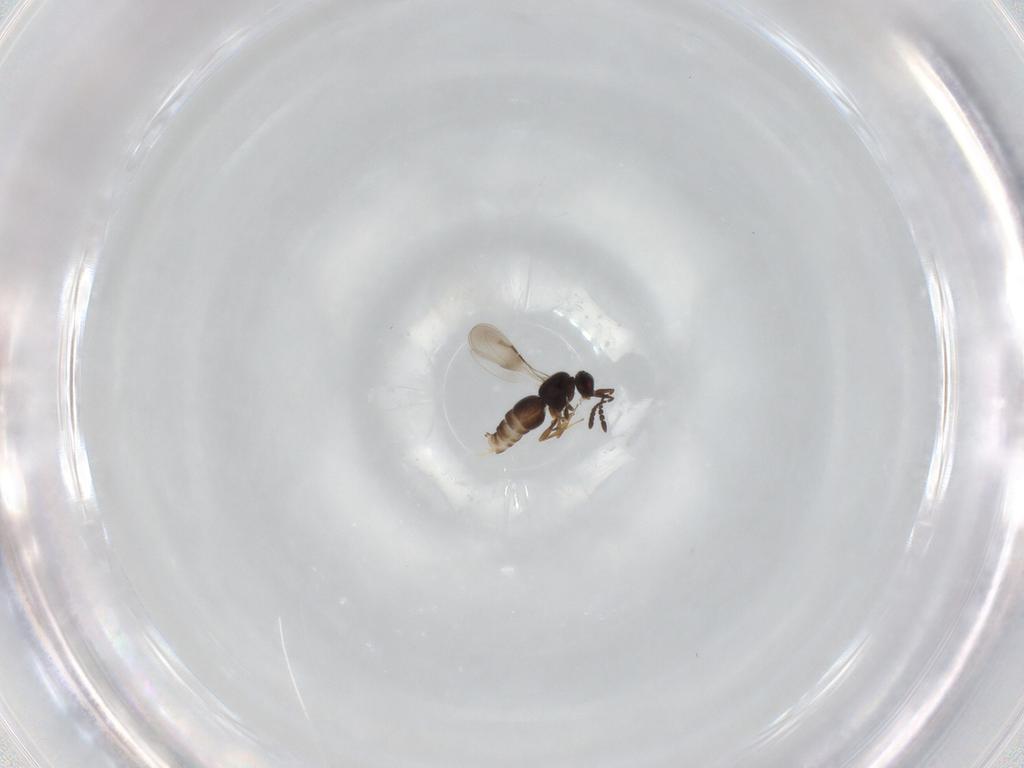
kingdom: Animalia
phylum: Arthropoda
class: Insecta
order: Hymenoptera
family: Ceraphronidae
